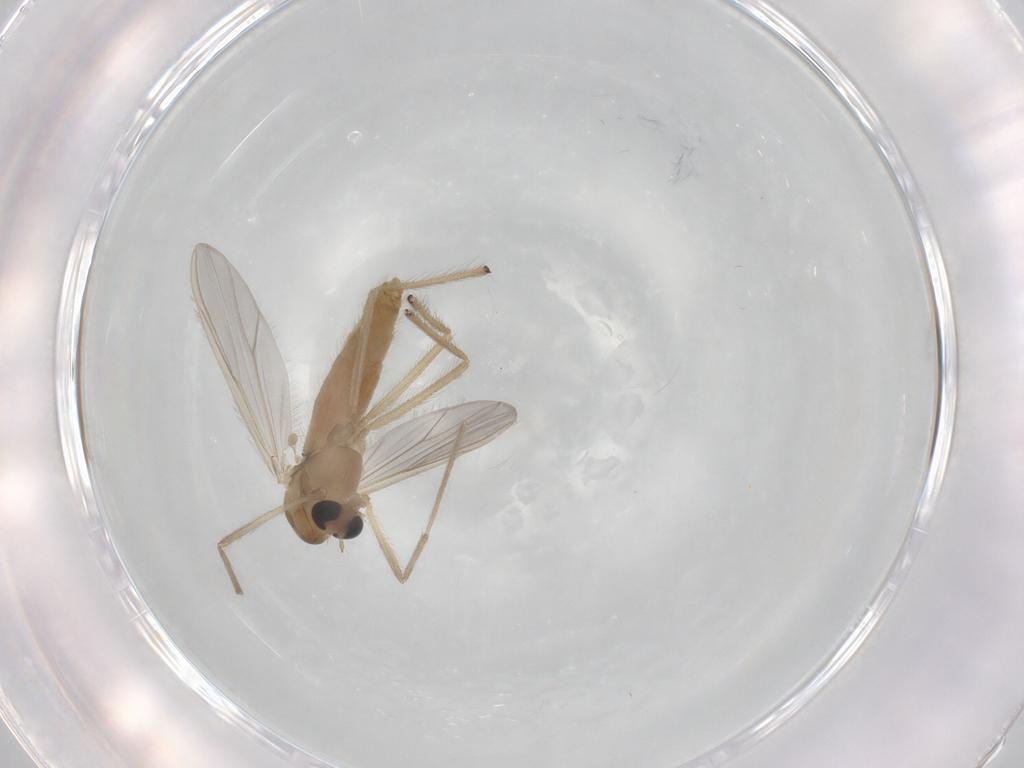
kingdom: Animalia
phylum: Arthropoda
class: Insecta
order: Diptera
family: Chironomidae
